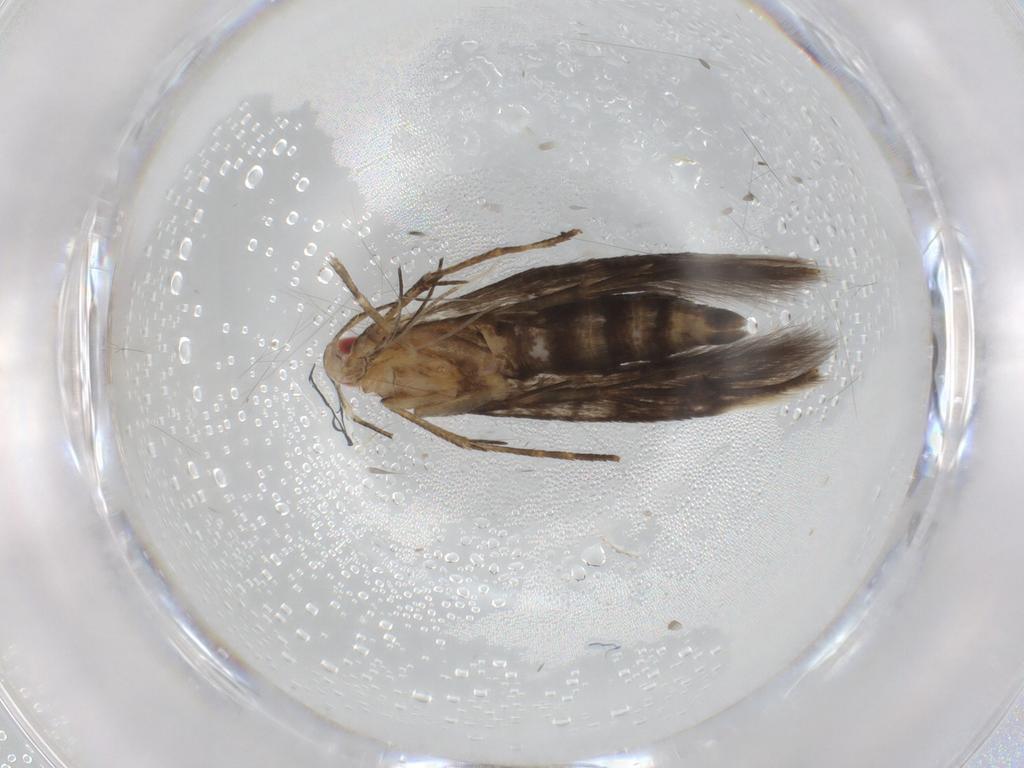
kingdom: Animalia
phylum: Arthropoda
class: Insecta
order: Lepidoptera
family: Cosmopterigidae
